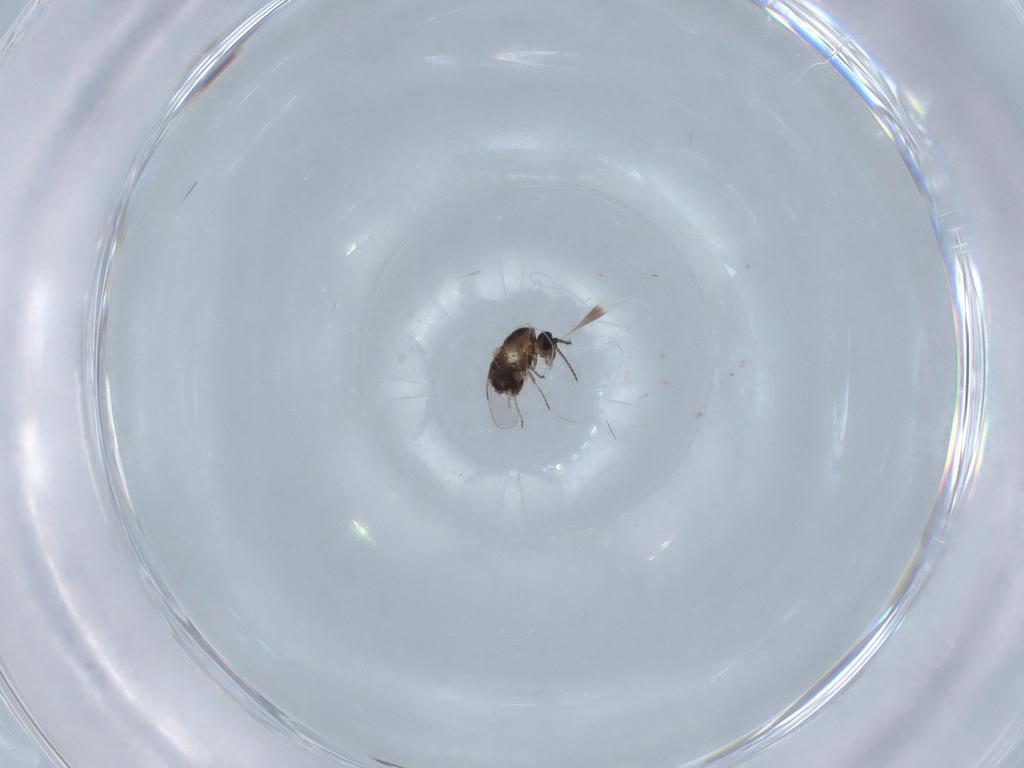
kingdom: Animalia
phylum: Arthropoda
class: Insecta
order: Diptera
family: Ceratopogonidae
